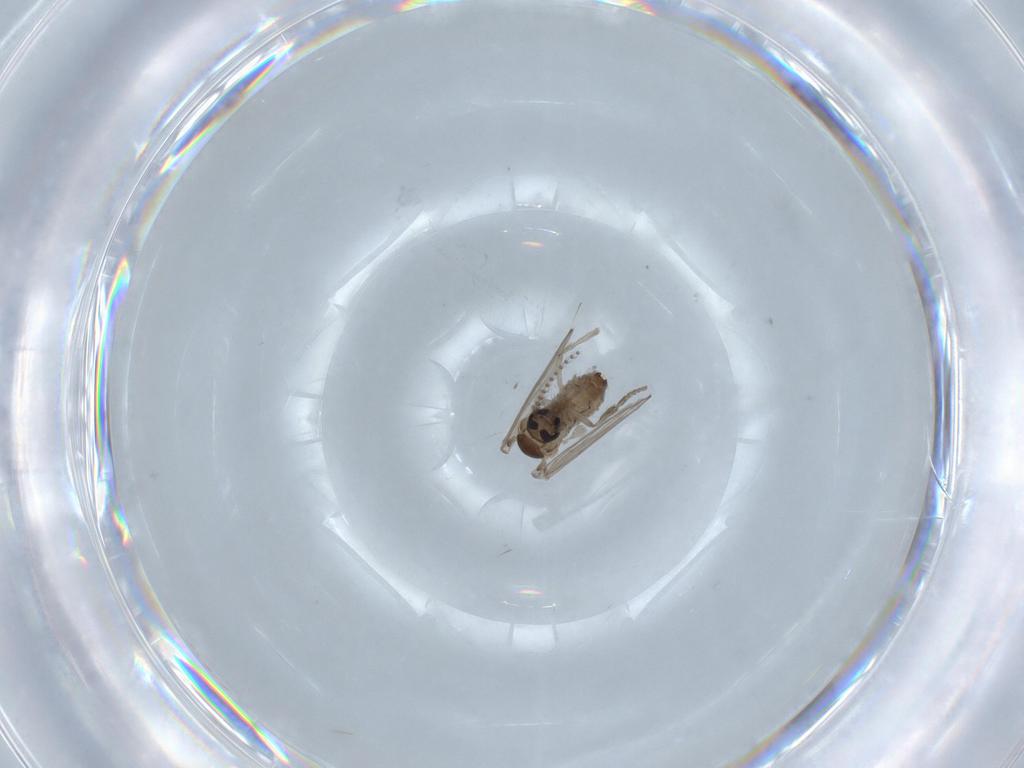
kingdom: Animalia
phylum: Arthropoda
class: Insecta
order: Diptera
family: Psychodidae
